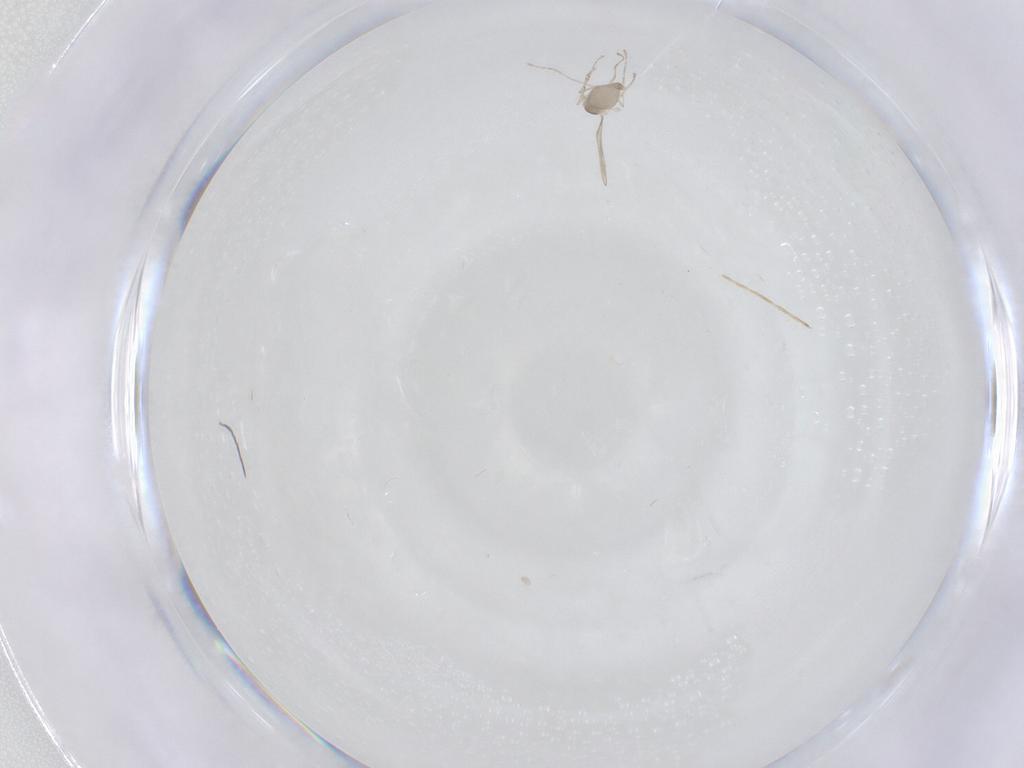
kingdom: Animalia
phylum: Arthropoda
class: Insecta
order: Diptera
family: Cecidomyiidae
